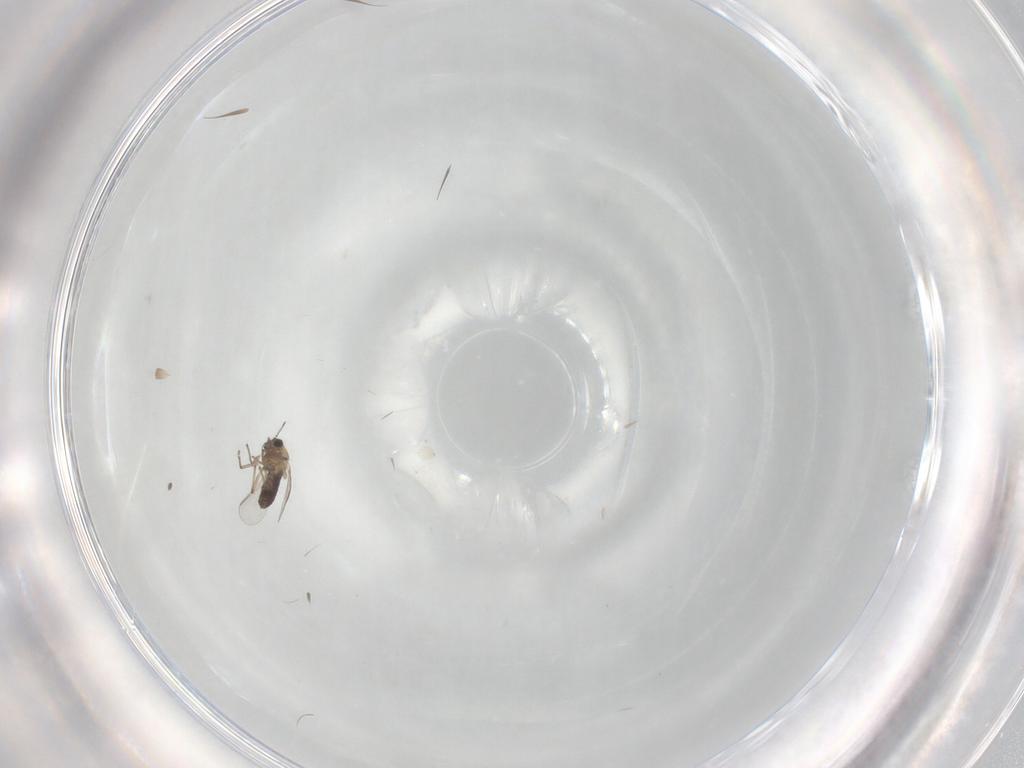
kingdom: Animalia
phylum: Arthropoda
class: Insecta
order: Diptera
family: Chironomidae
